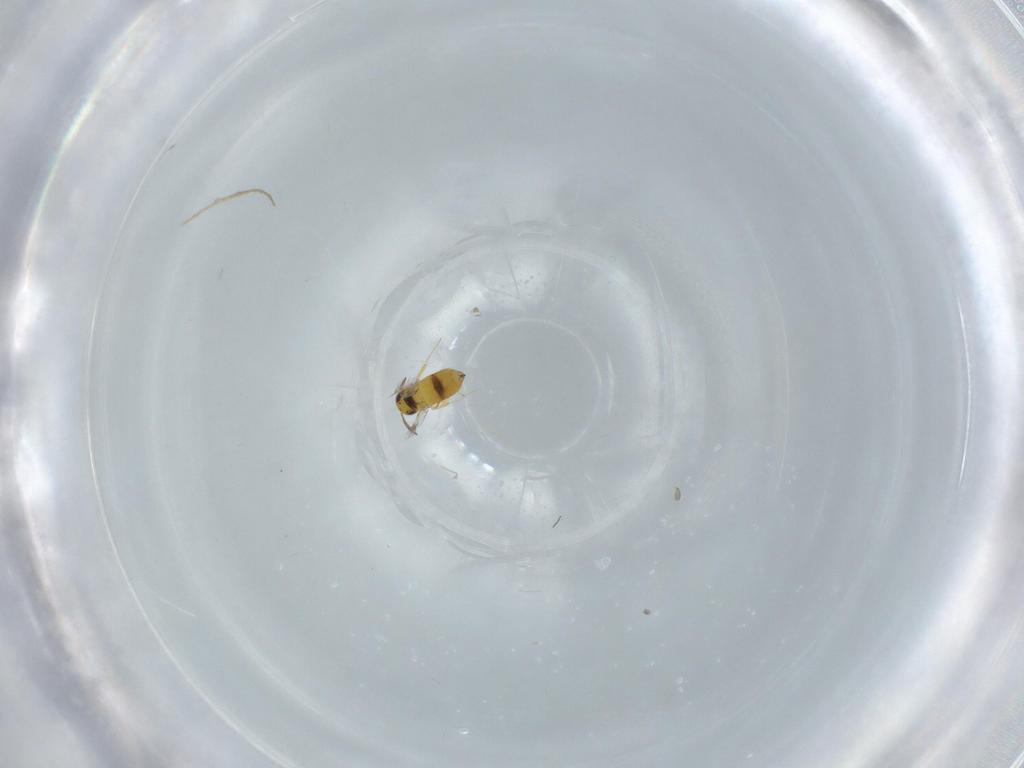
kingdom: Animalia
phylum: Arthropoda
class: Insecta
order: Hymenoptera
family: Signiphoridae
